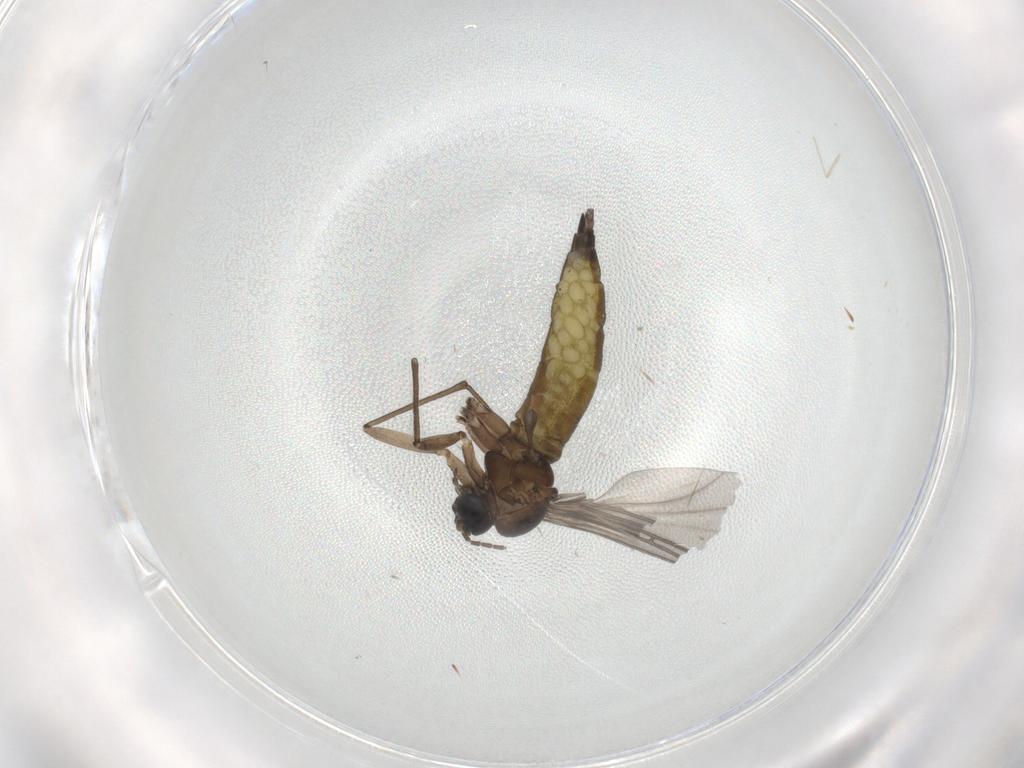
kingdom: Animalia
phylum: Arthropoda
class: Insecta
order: Diptera
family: Sciaridae
